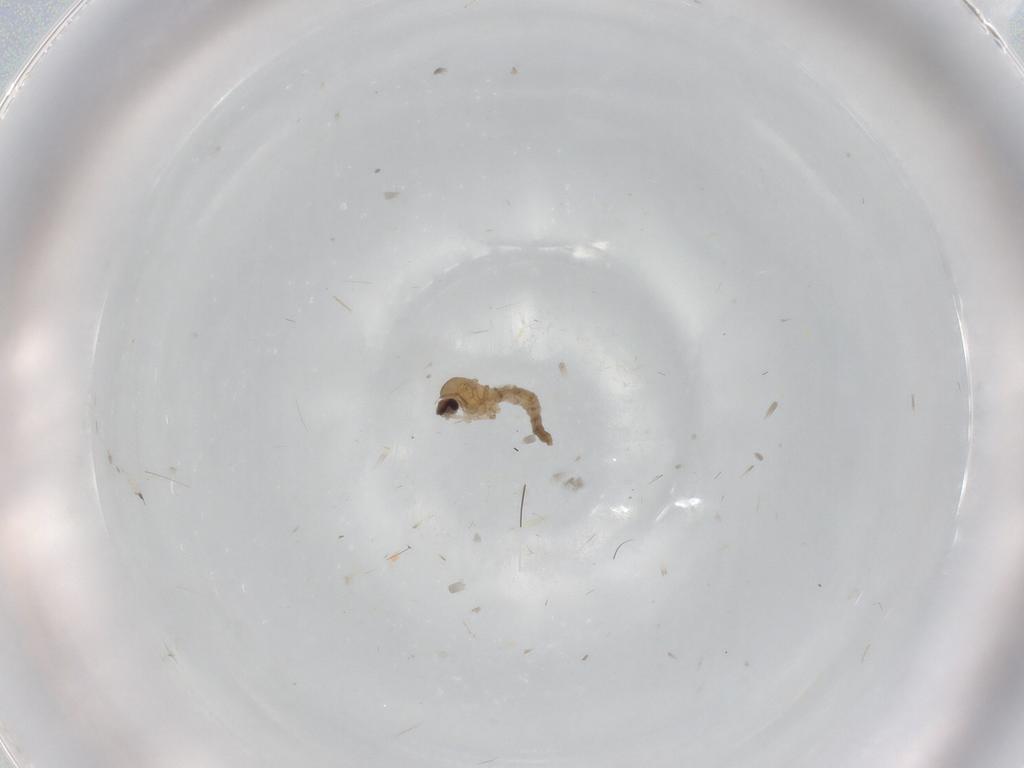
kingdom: Animalia
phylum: Arthropoda
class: Insecta
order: Diptera
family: Cecidomyiidae
